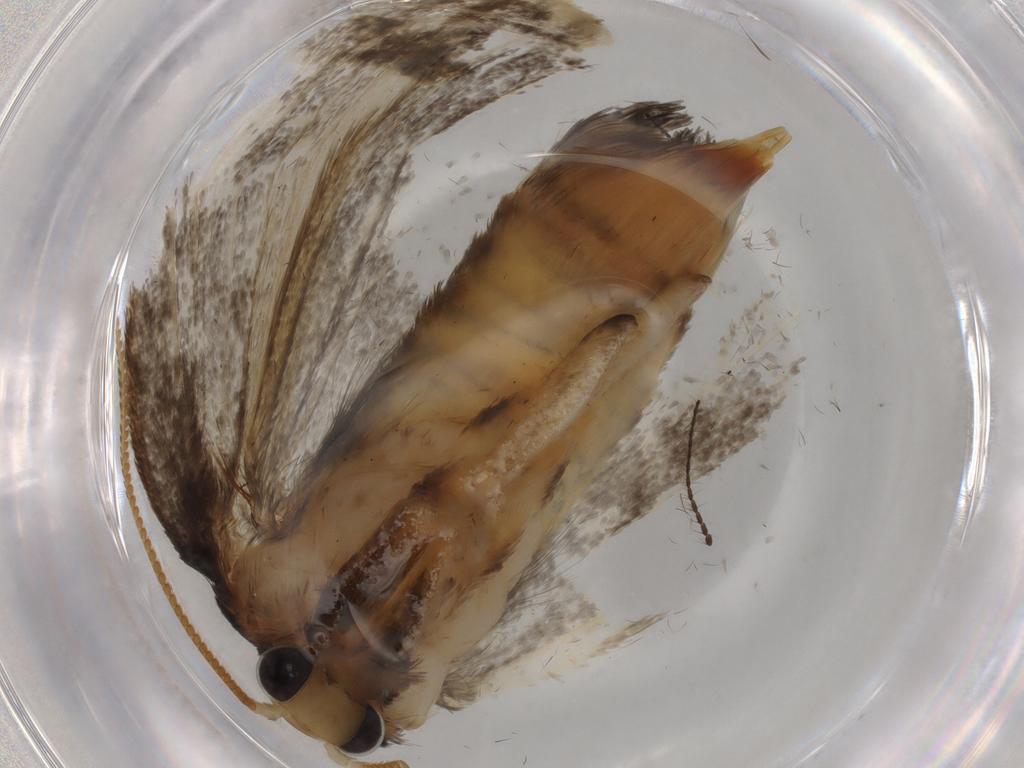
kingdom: Animalia
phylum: Arthropoda
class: Insecta
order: Lepidoptera
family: Psychidae
